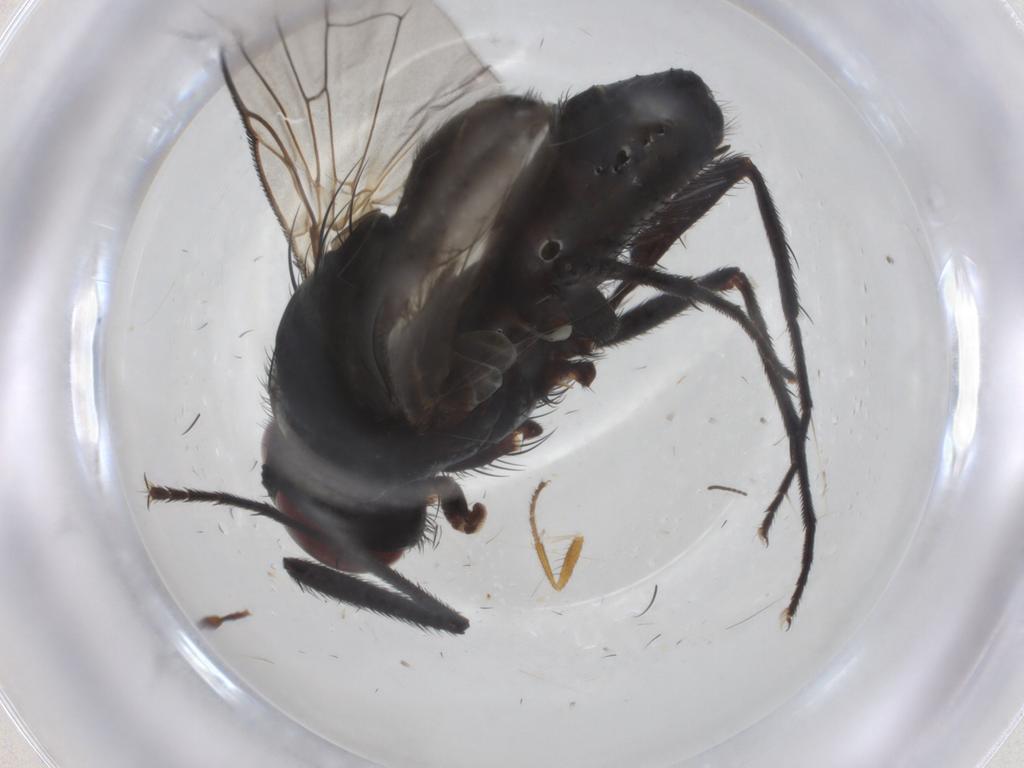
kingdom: Animalia
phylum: Arthropoda
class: Insecta
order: Diptera
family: Muscidae
